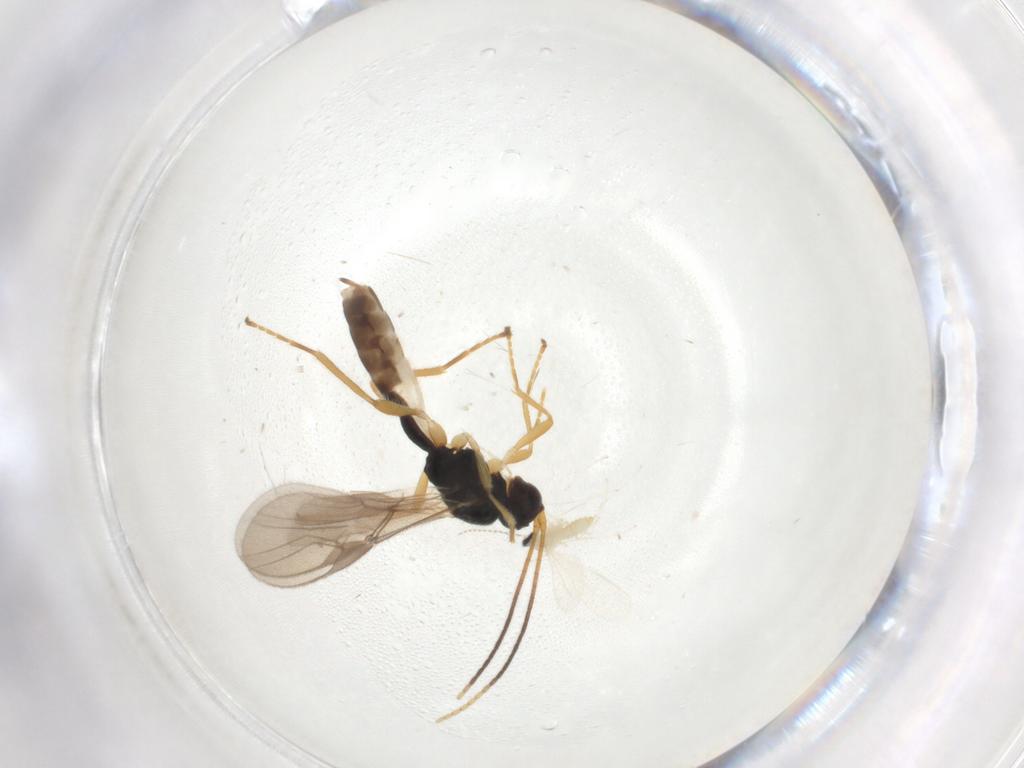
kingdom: Animalia
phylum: Arthropoda
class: Insecta
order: Hymenoptera
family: Braconidae
